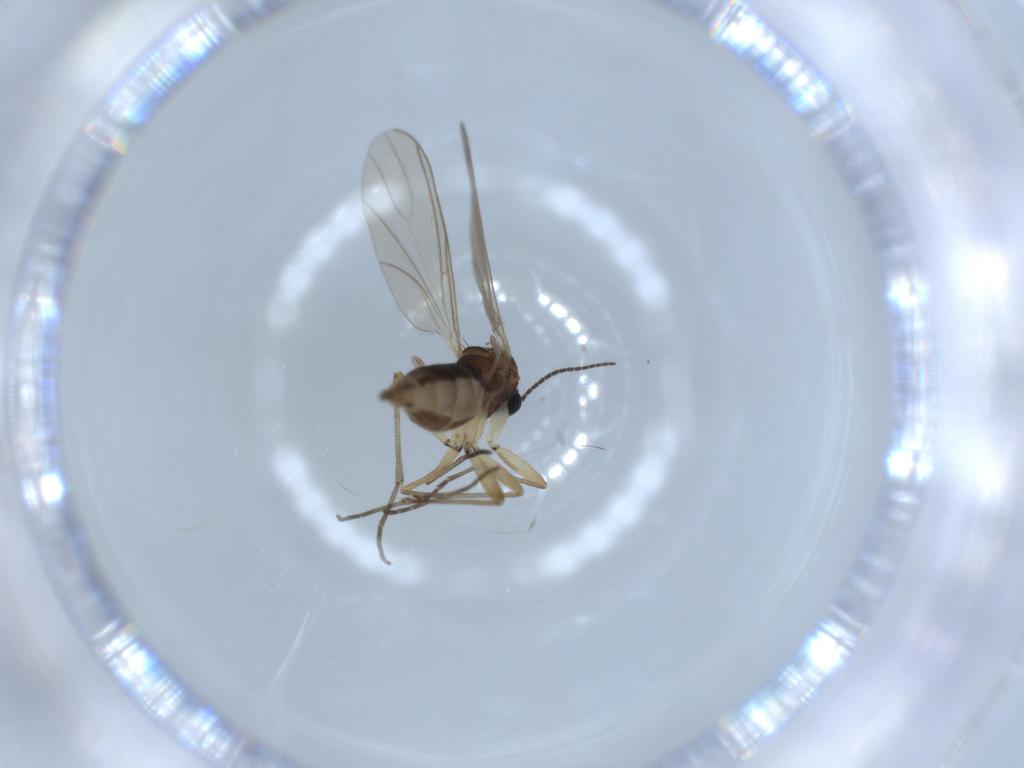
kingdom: Animalia
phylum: Arthropoda
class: Insecta
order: Diptera
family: Sciaridae
